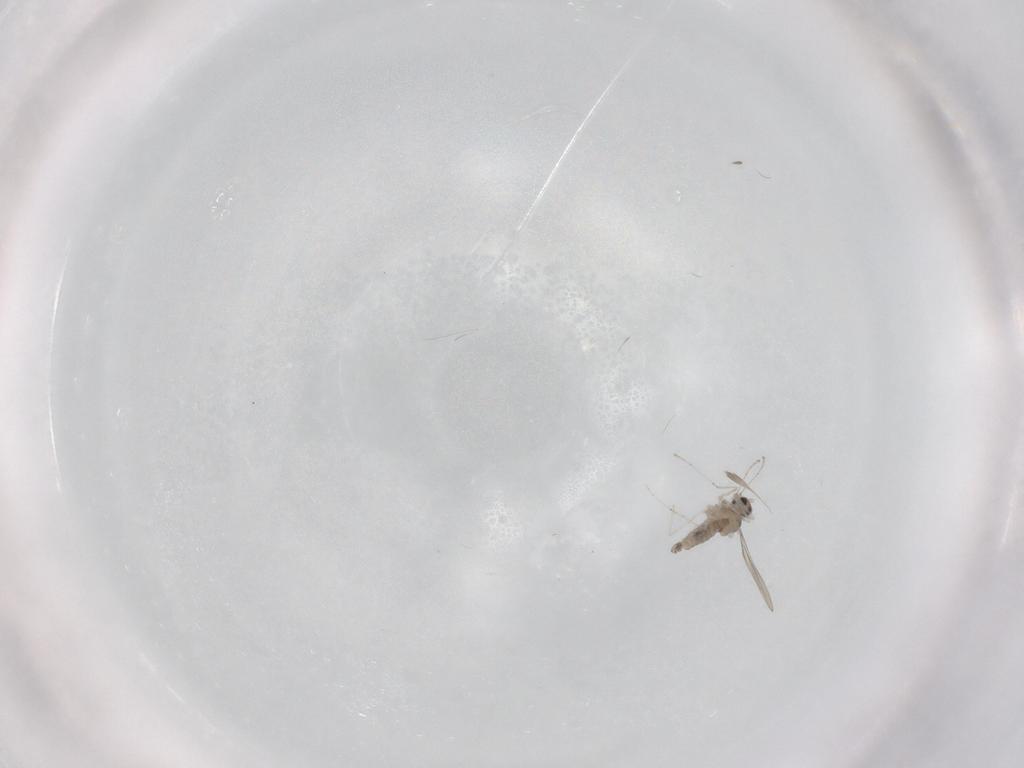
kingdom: Animalia
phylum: Arthropoda
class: Insecta
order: Diptera
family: Cecidomyiidae
